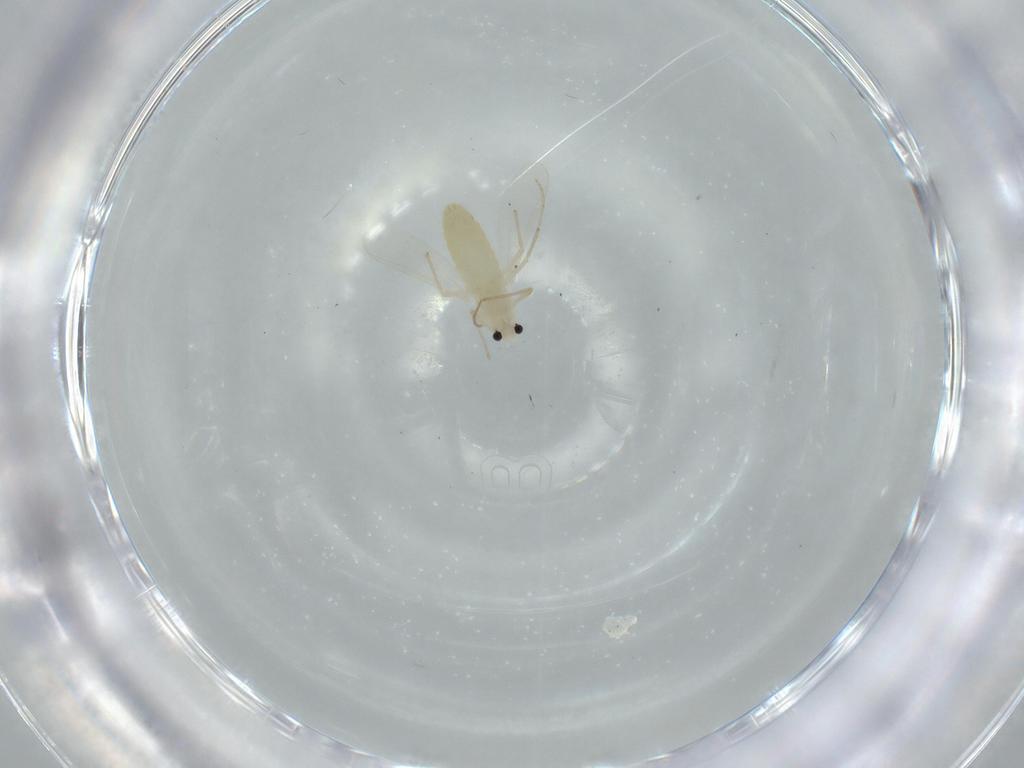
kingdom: Animalia
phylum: Arthropoda
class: Insecta
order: Diptera
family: Chironomidae
